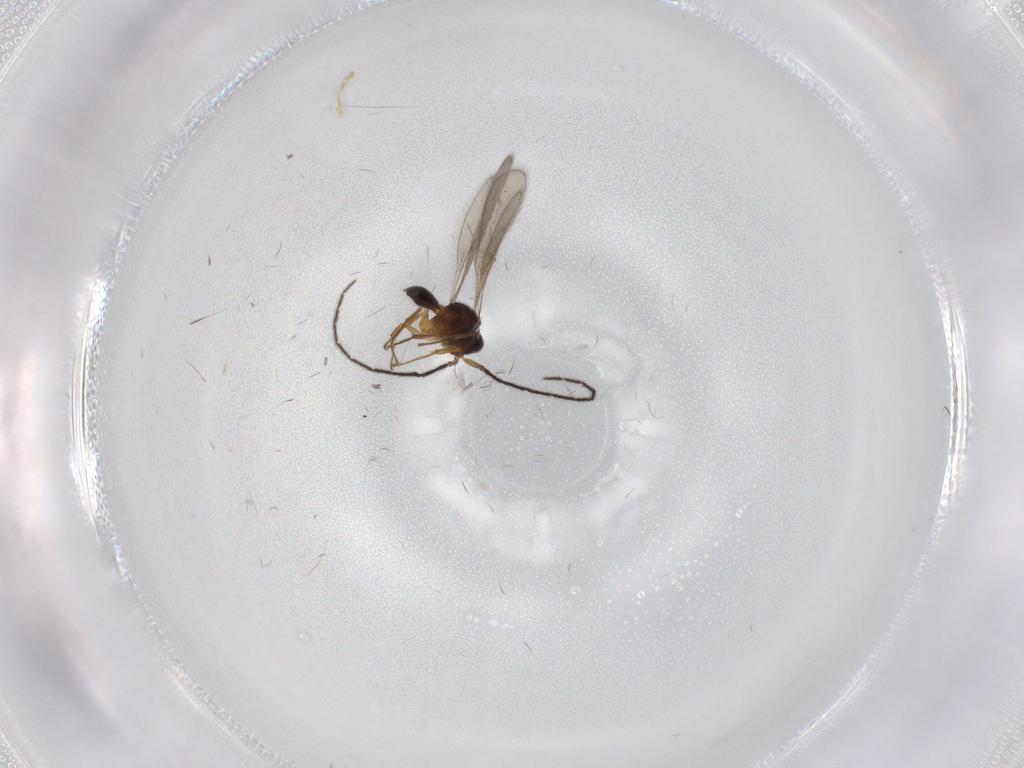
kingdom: Animalia
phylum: Arthropoda
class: Insecta
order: Hymenoptera
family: Scelionidae
